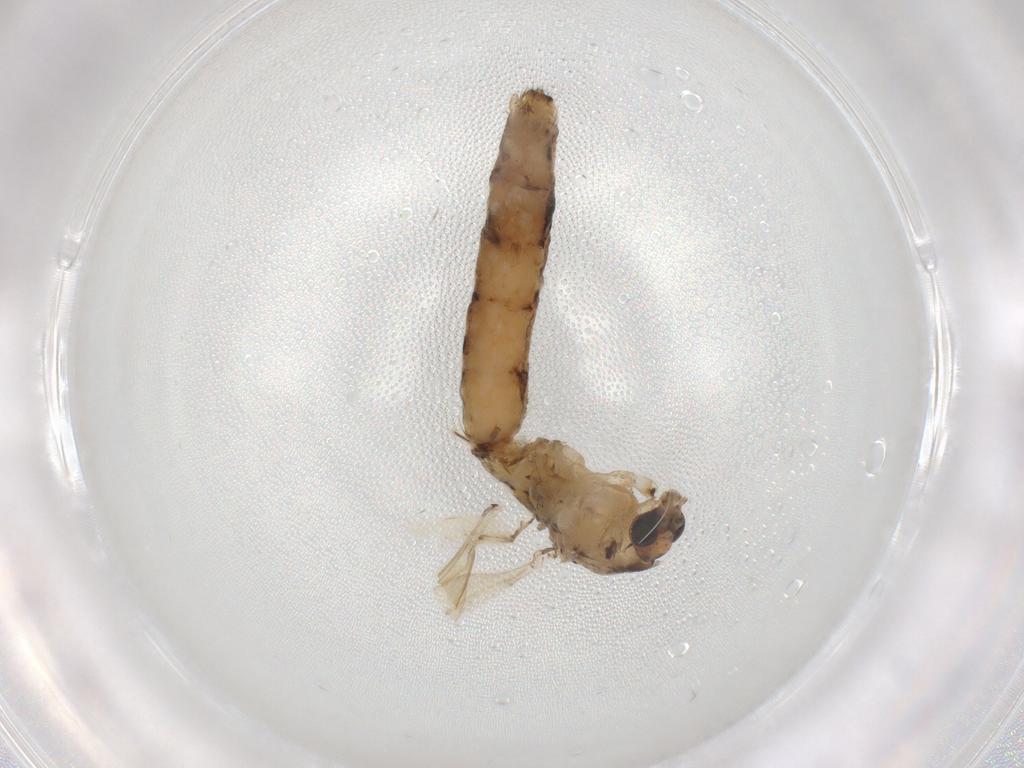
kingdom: Animalia
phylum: Arthropoda
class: Insecta
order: Diptera
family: Limoniidae
